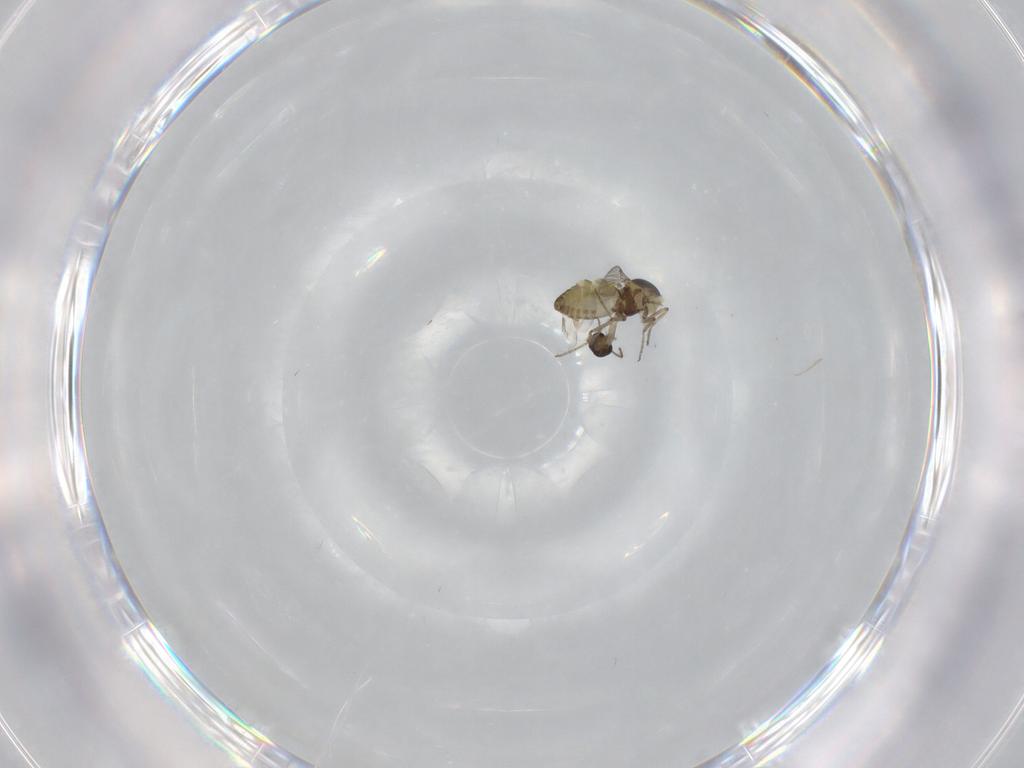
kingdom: Animalia
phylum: Arthropoda
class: Insecta
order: Diptera
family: Ceratopogonidae
